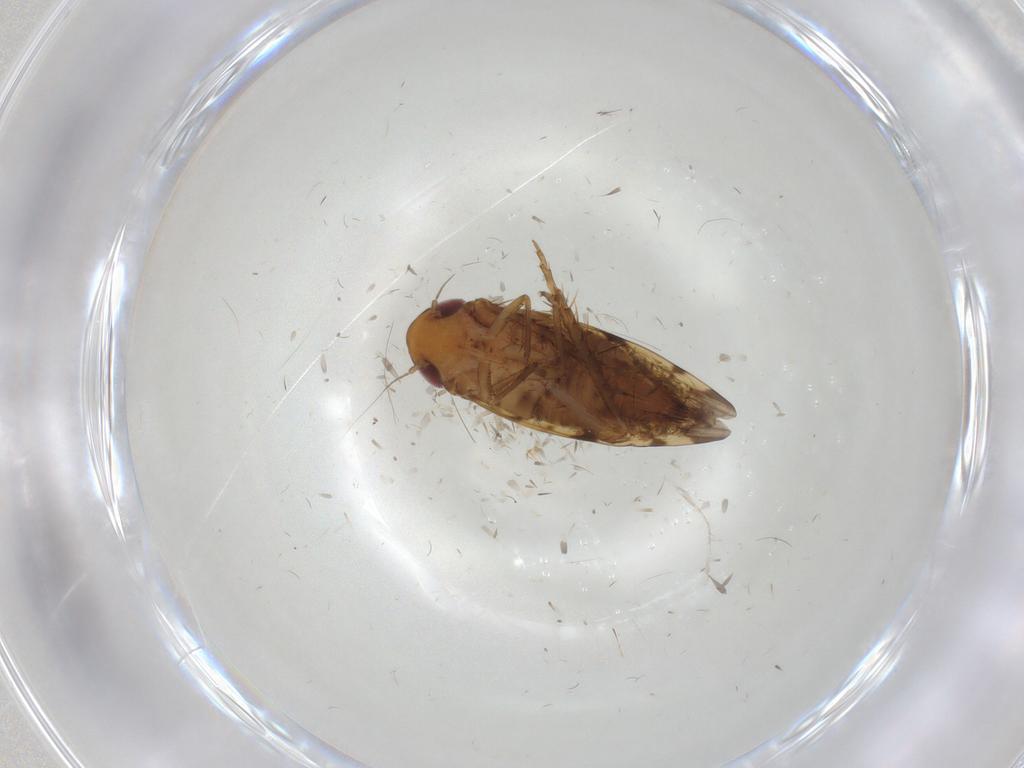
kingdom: Animalia
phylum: Arthropoda
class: Insecta
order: Hemiptera
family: Cicadellidae
